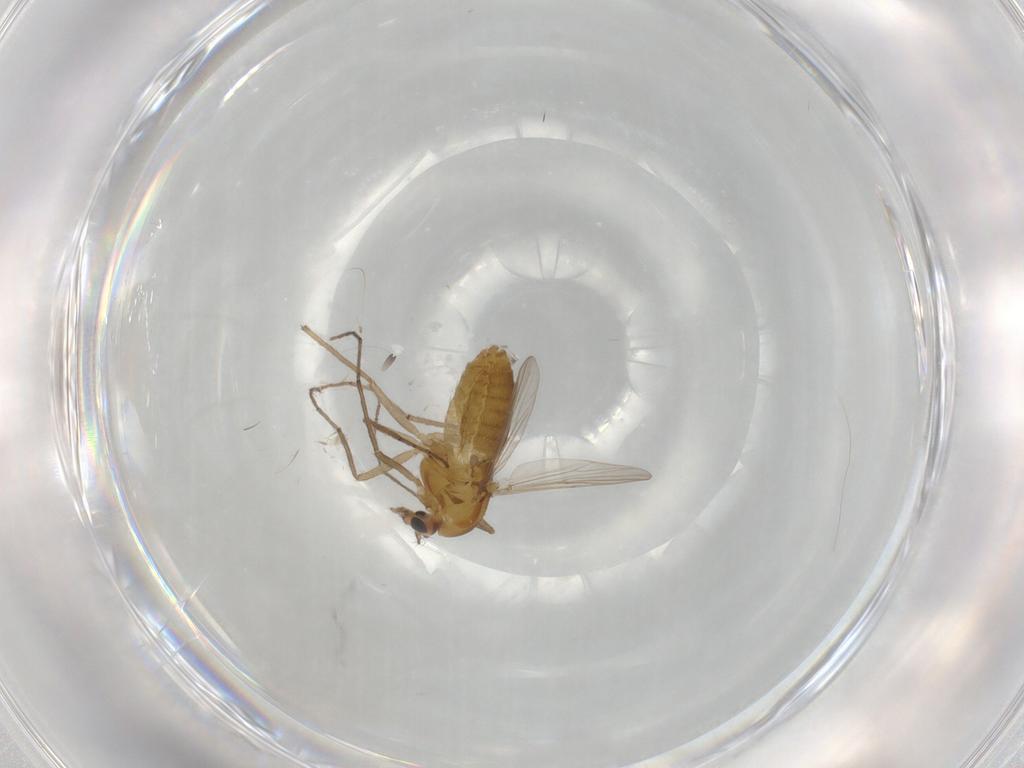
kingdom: Animalia
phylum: Arthropoda
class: Insecta
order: Diptera
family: Chironomidae
